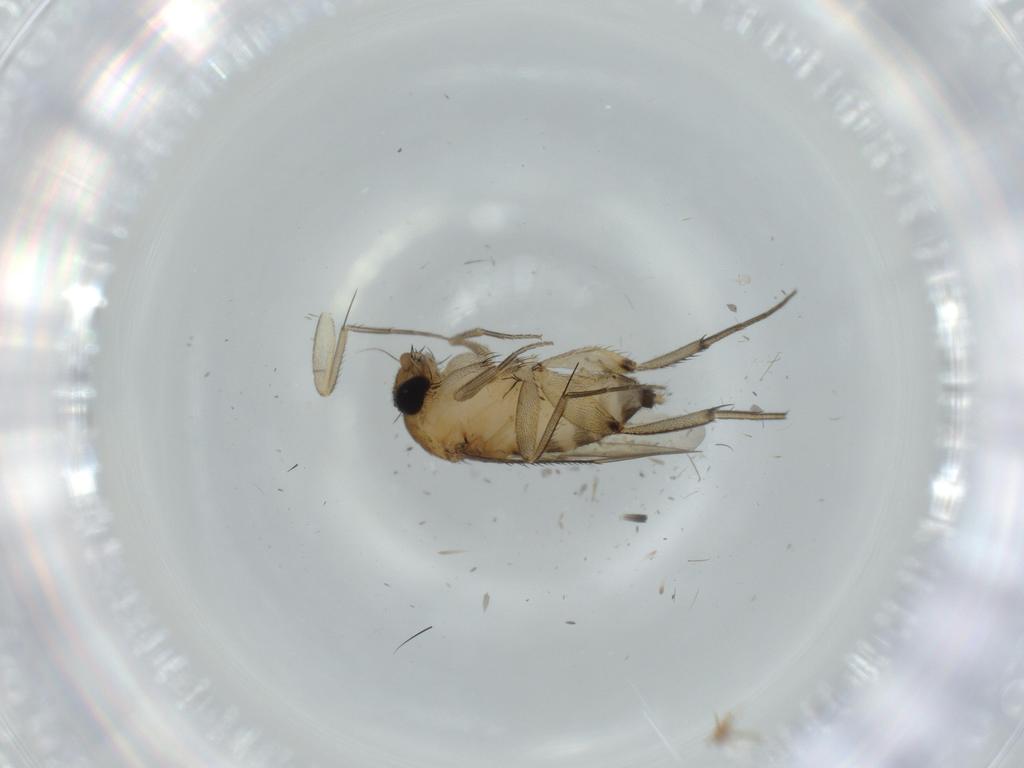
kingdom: Animalia
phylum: Arthropoda
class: Insecta
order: Diptera
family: Phoridae
